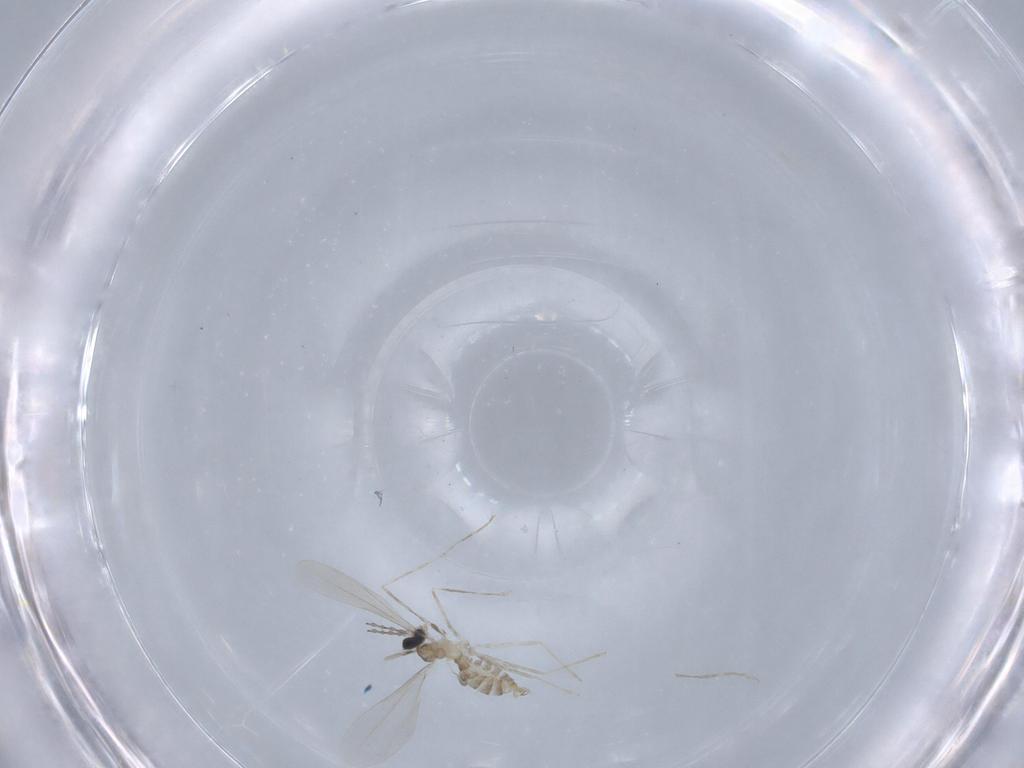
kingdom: Animalia
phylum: Arthropoda
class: Insecta
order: Diptera
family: Cecidomyiidae
